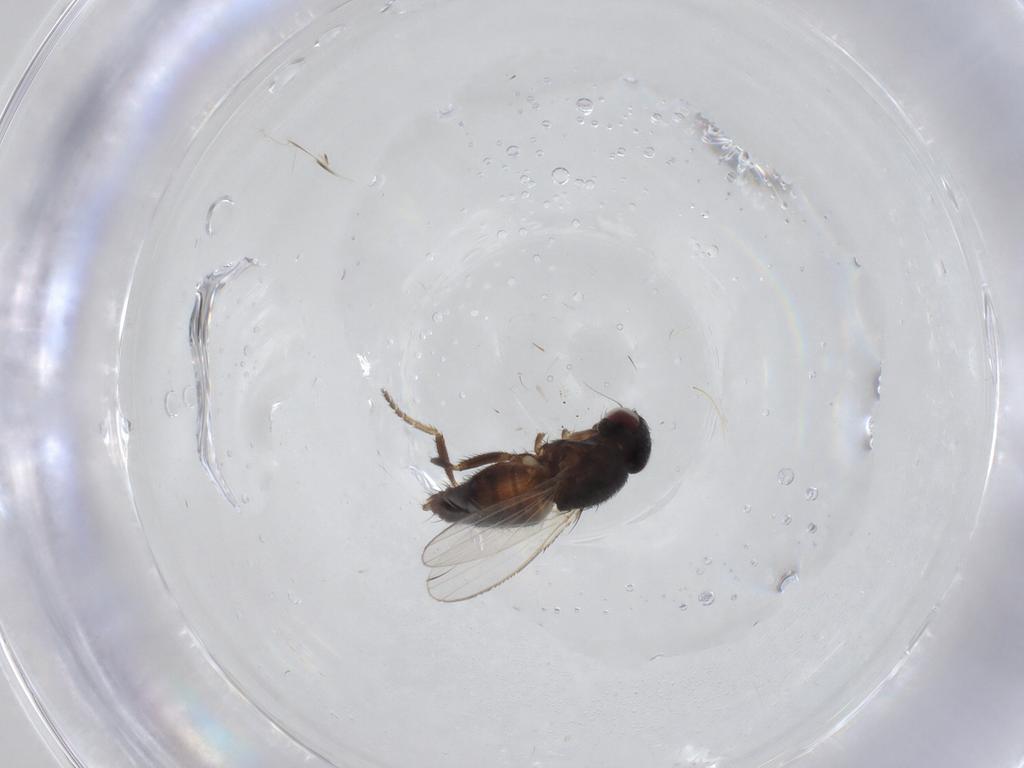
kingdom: Animalia
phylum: Arthropoda
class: Insecta
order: Diptera
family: Milichiidae
